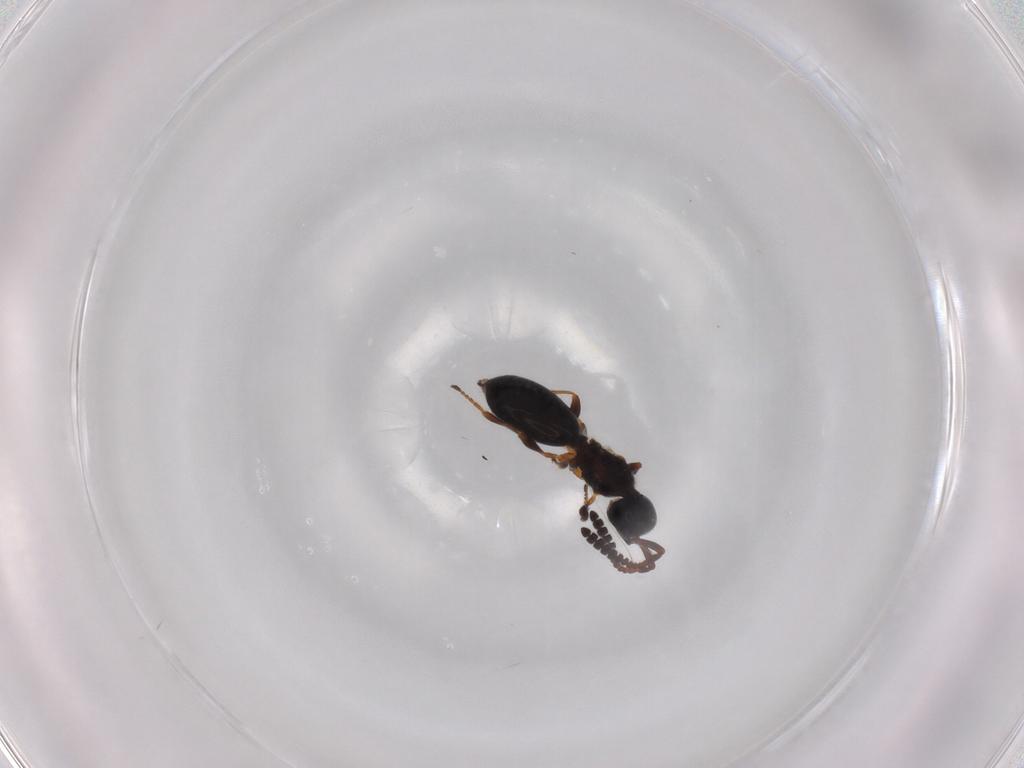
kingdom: Animalia
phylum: Arthropoda
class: Insecta
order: Hymenoptera
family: Diapriidae
